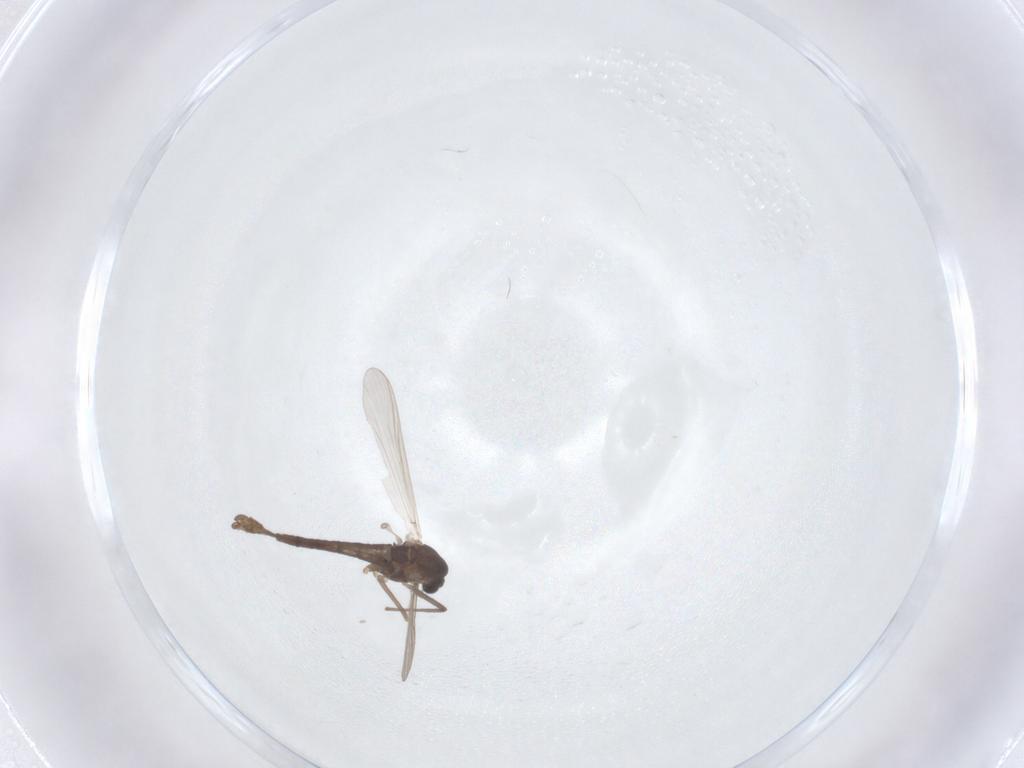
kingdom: Animalia
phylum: Arthropoda
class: Insecta
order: Diptera
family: Chironomidae
